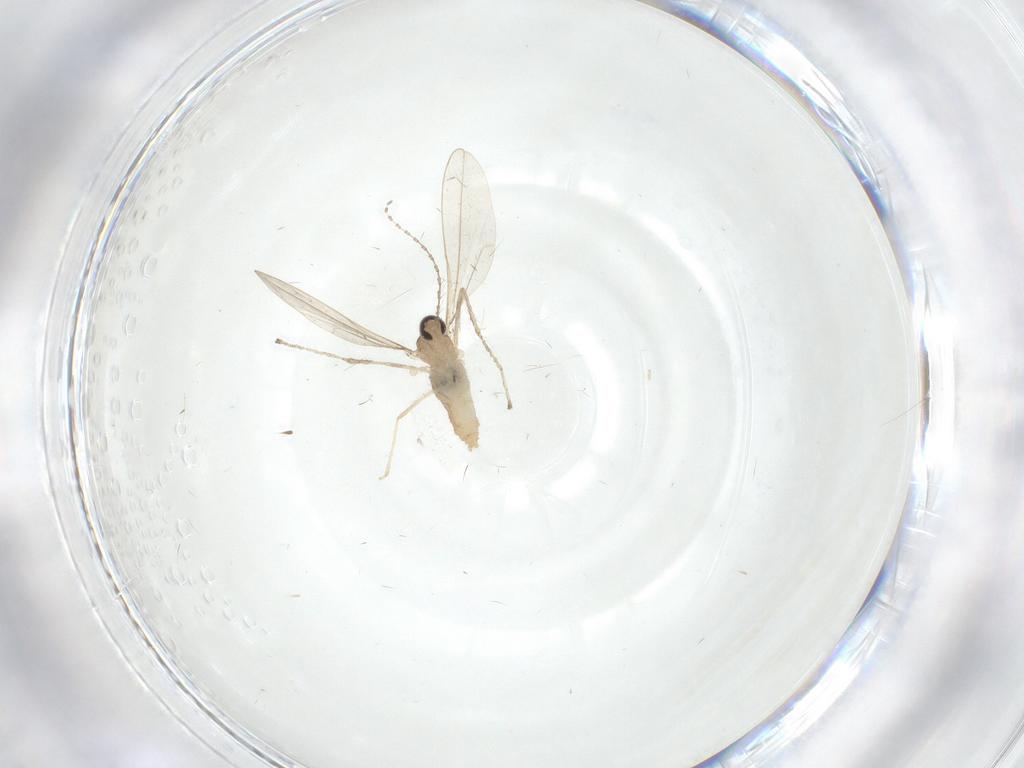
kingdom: Animalia
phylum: Arthropoda
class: Insecta
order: Diptera
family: Cecidomyiidae
